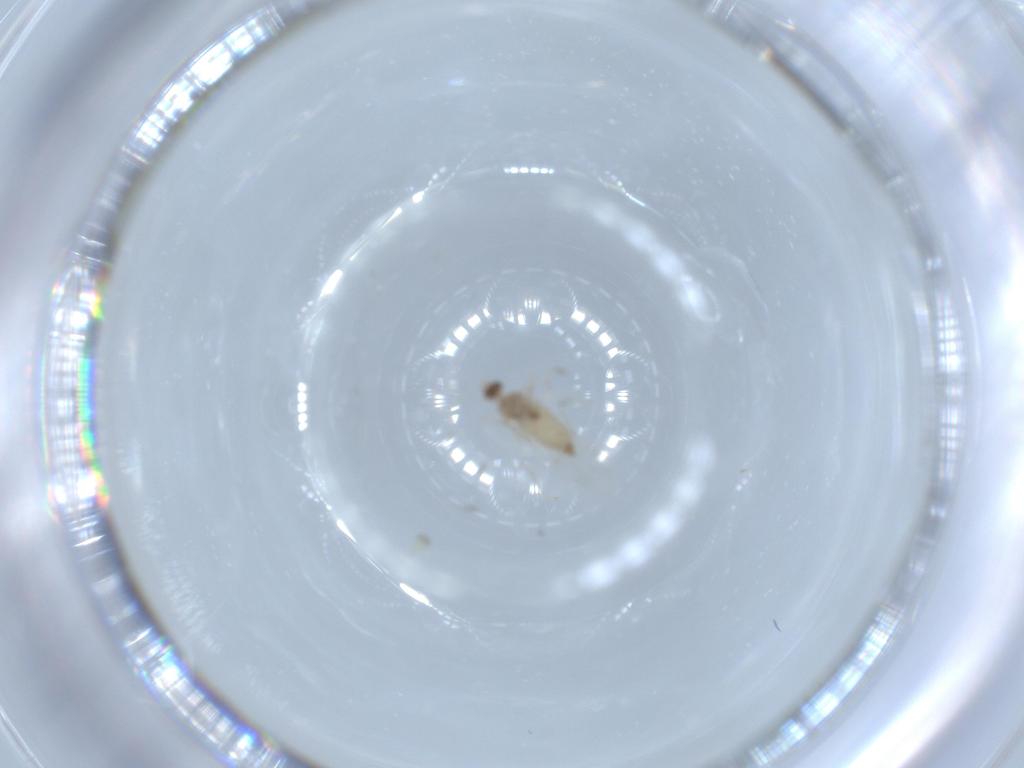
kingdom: Animalia
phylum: Arthropoda
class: Insecta
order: Diptera
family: Cecidomyiidae
